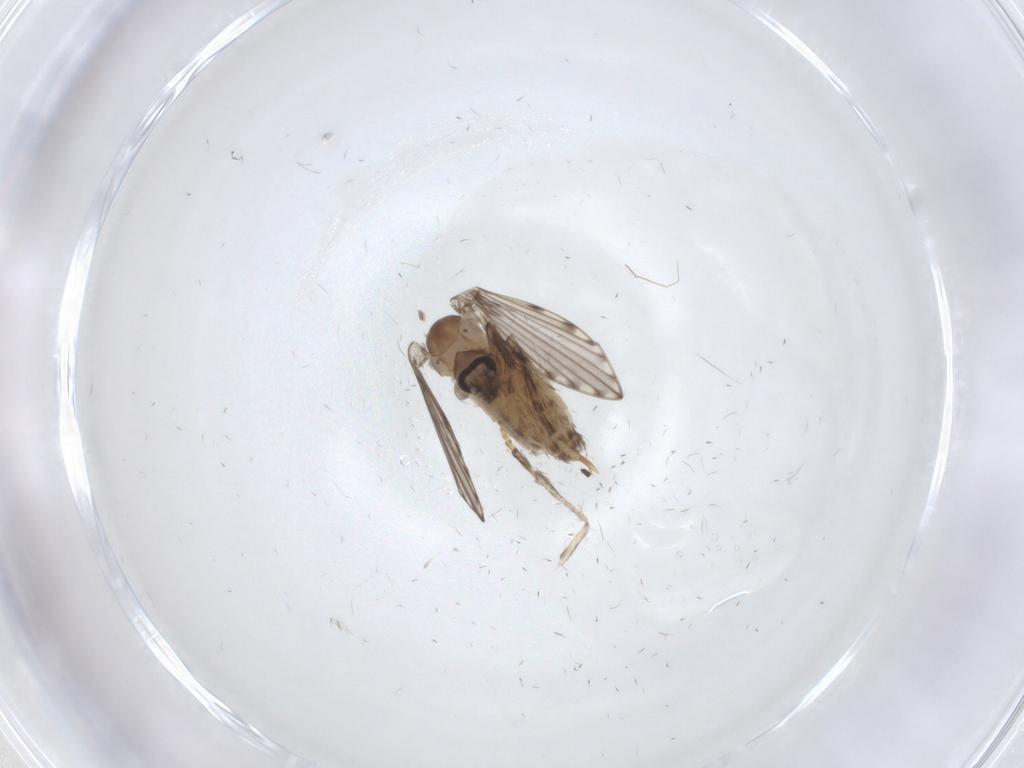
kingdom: Animalia
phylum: Arthropoda
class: Insecta
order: Diptera
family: Psychodidae
